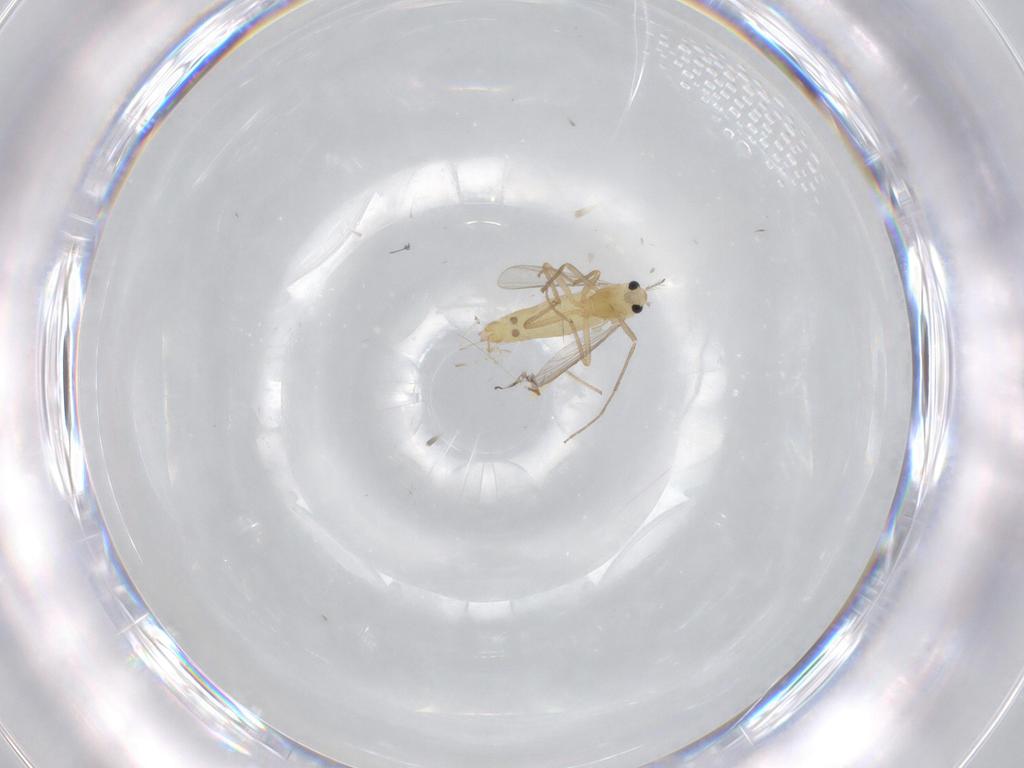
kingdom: Animalia
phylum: Arthropoda
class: Insecta
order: Diptera
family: Chironomidae
